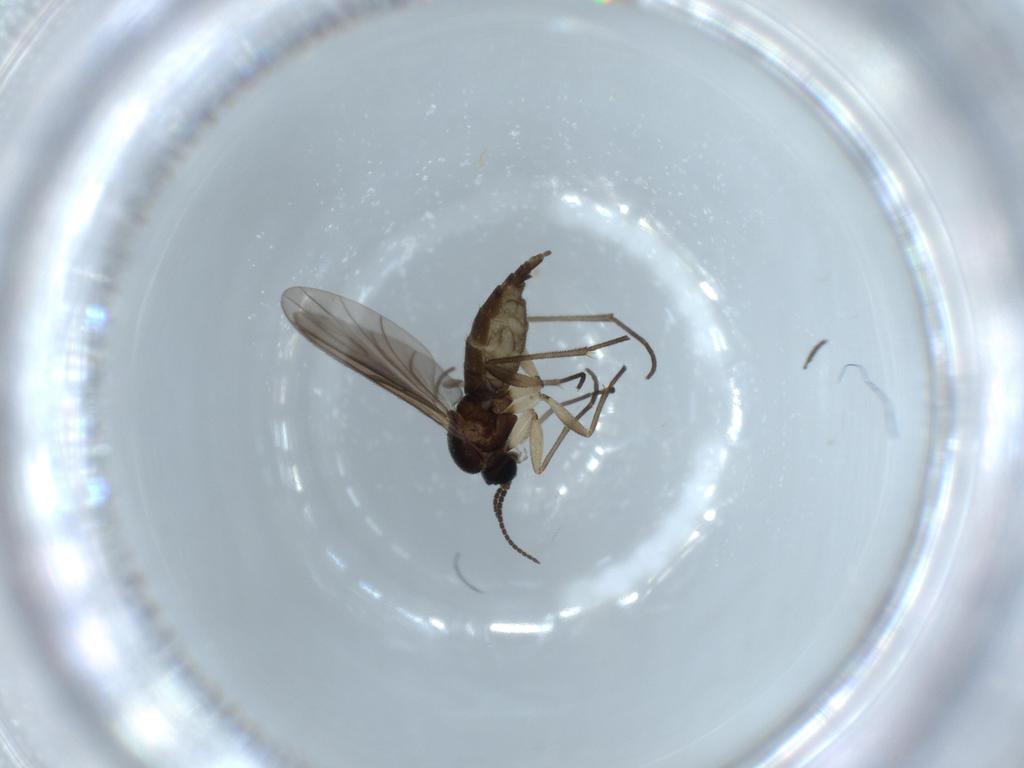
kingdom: Animalia
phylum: Arthropoda
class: Insecta
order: Diptera
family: Sciaridae
